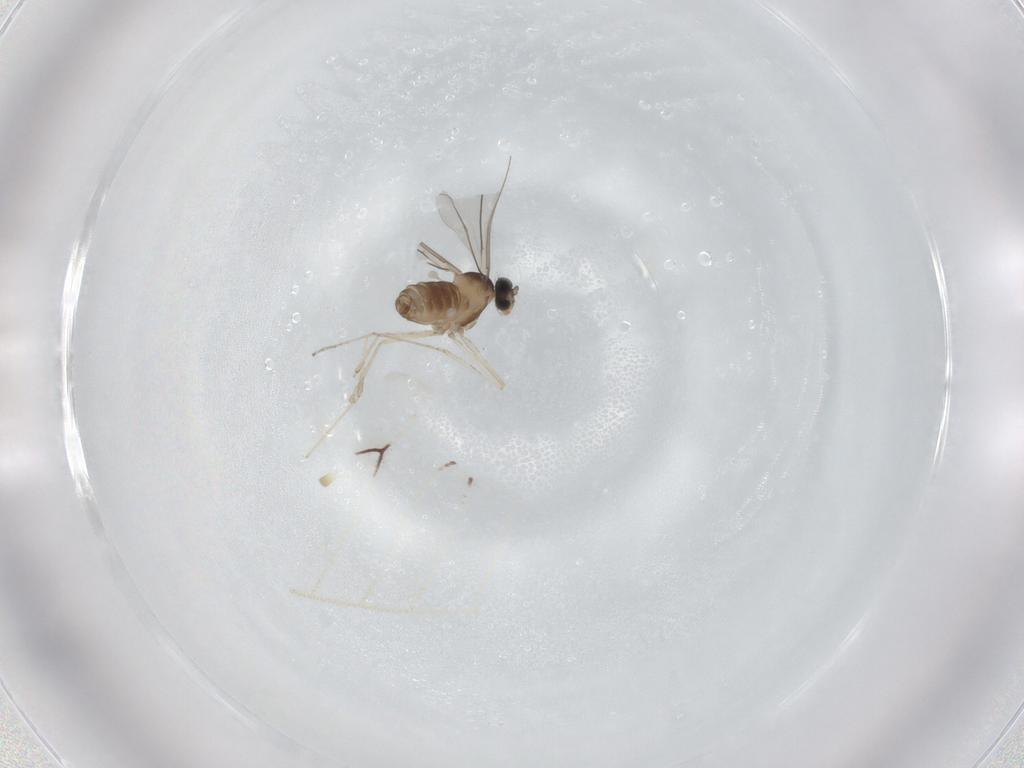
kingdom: Animalia
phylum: Arthropoda
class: Insecta
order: Diptera
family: Cecidomyiidae
